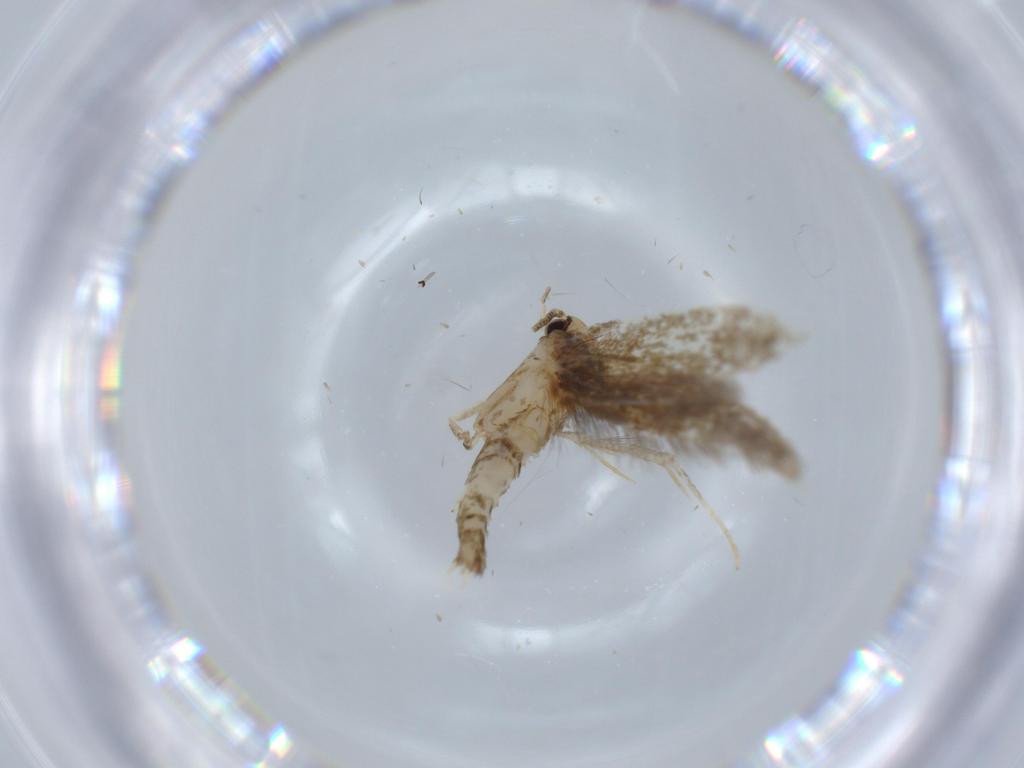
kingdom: Animalia
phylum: Arthropoda
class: Insecta
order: Lepidoptera
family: Tineidae
